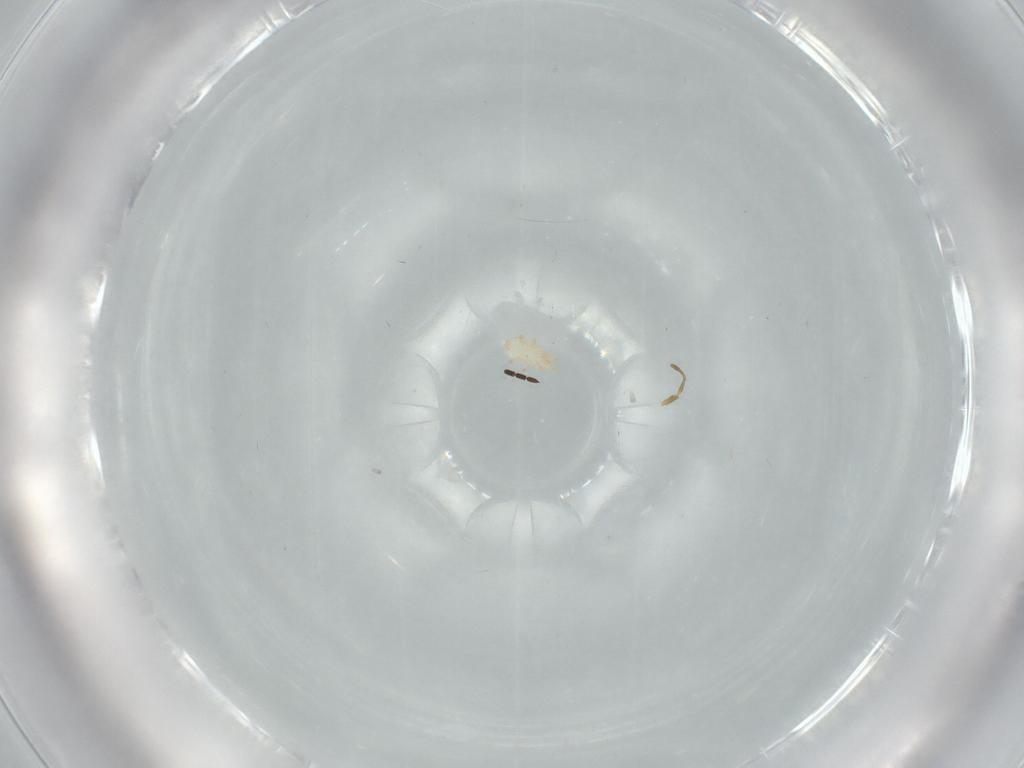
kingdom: Animalia
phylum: Arthropoda
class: Arachnida
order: Mesostigmata
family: Digamasellidae
